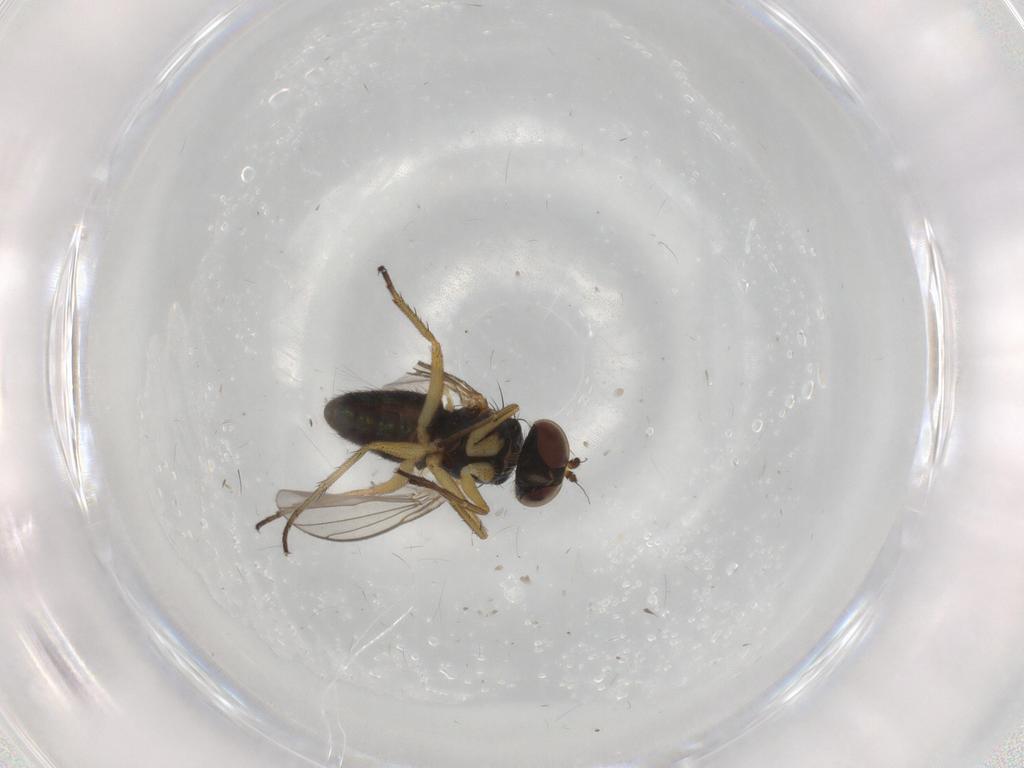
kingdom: Animalia
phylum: Arthropoda
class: Insecta
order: Diptera
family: Dolichopodidae
